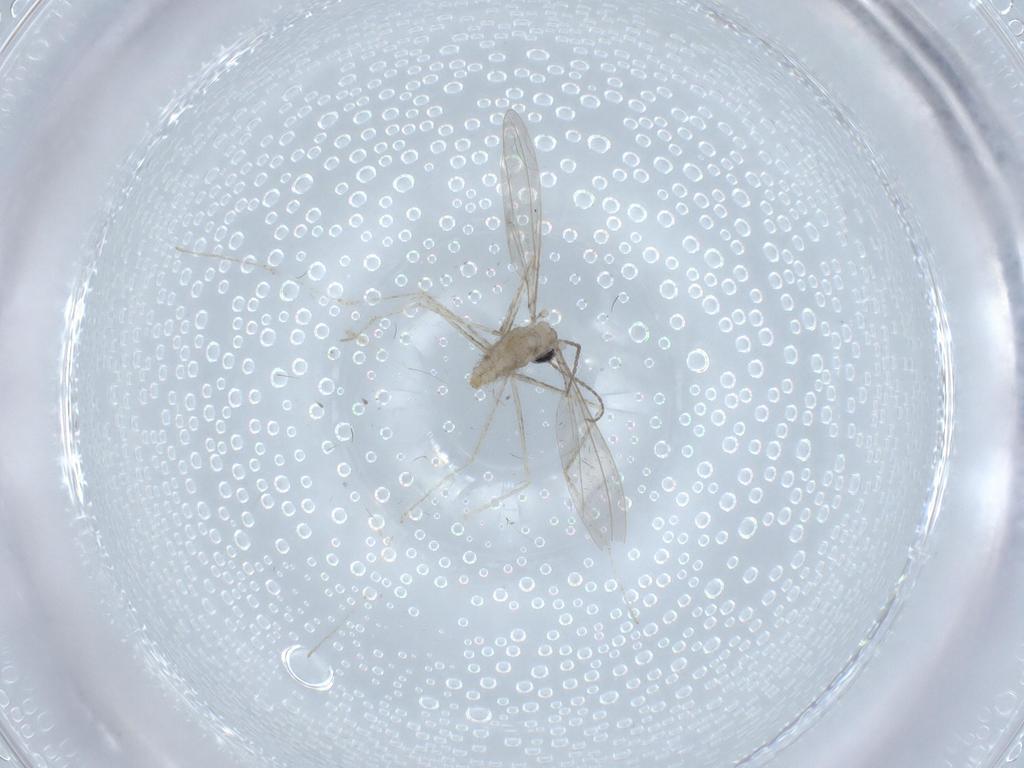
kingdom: Animalia
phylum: Arthropoda
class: Insecta
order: Diptera
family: Cecidomyiidae
